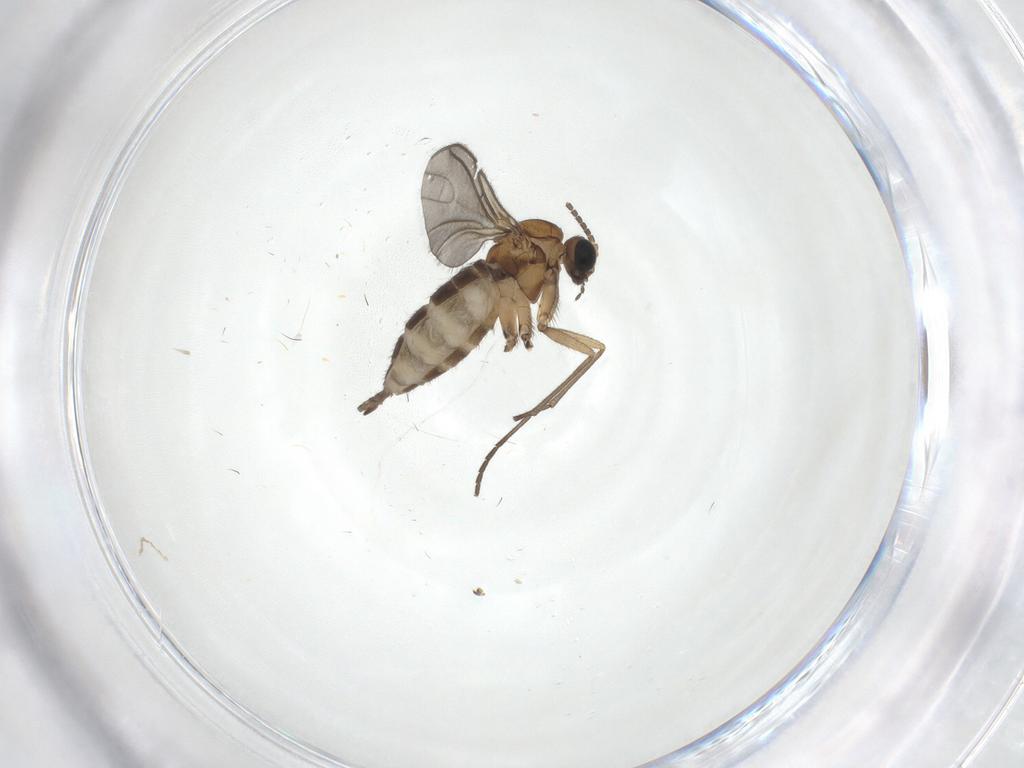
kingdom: Animalia
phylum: Arthropoda
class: Insecta
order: Diptera
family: Sciaridae
